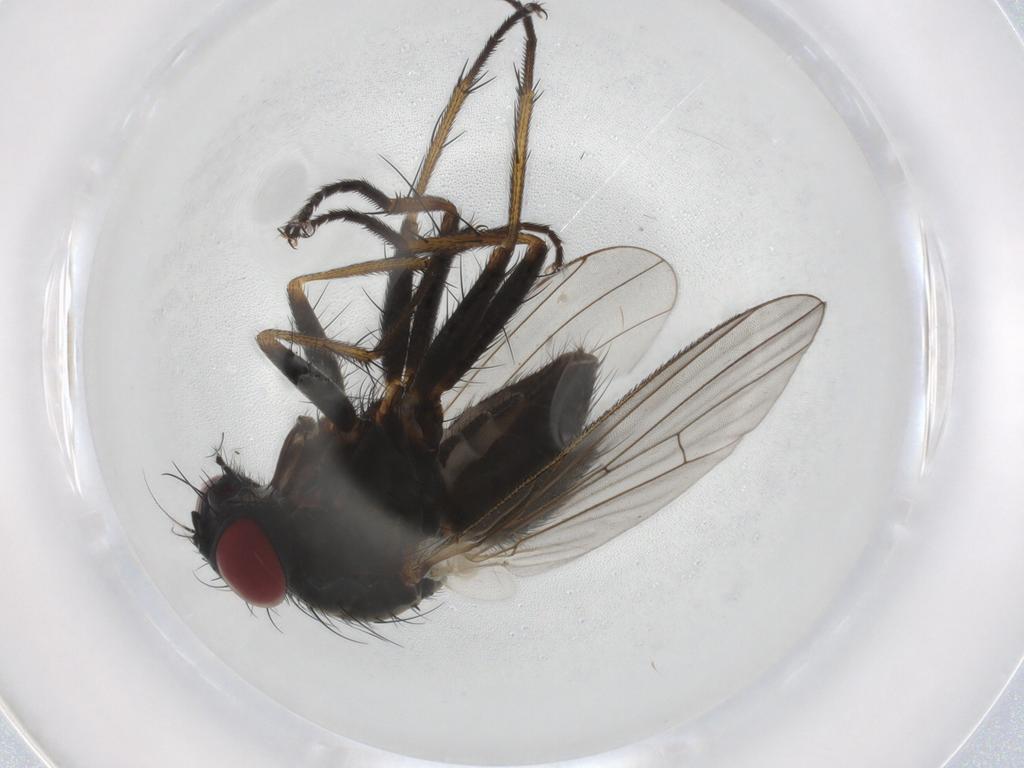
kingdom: Animalia
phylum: Arthropoda
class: Insecta
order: Diptera
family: Muscidae
